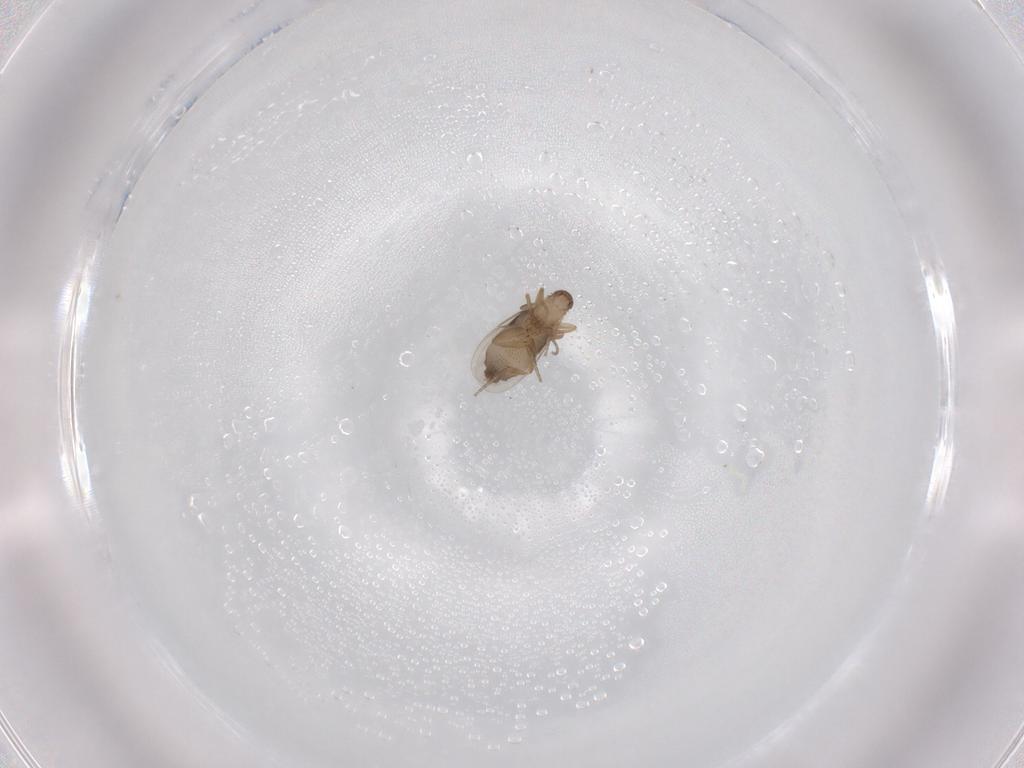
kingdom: Animalia
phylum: Arthropoda
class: Insecta
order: Diptera
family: Phoridae
